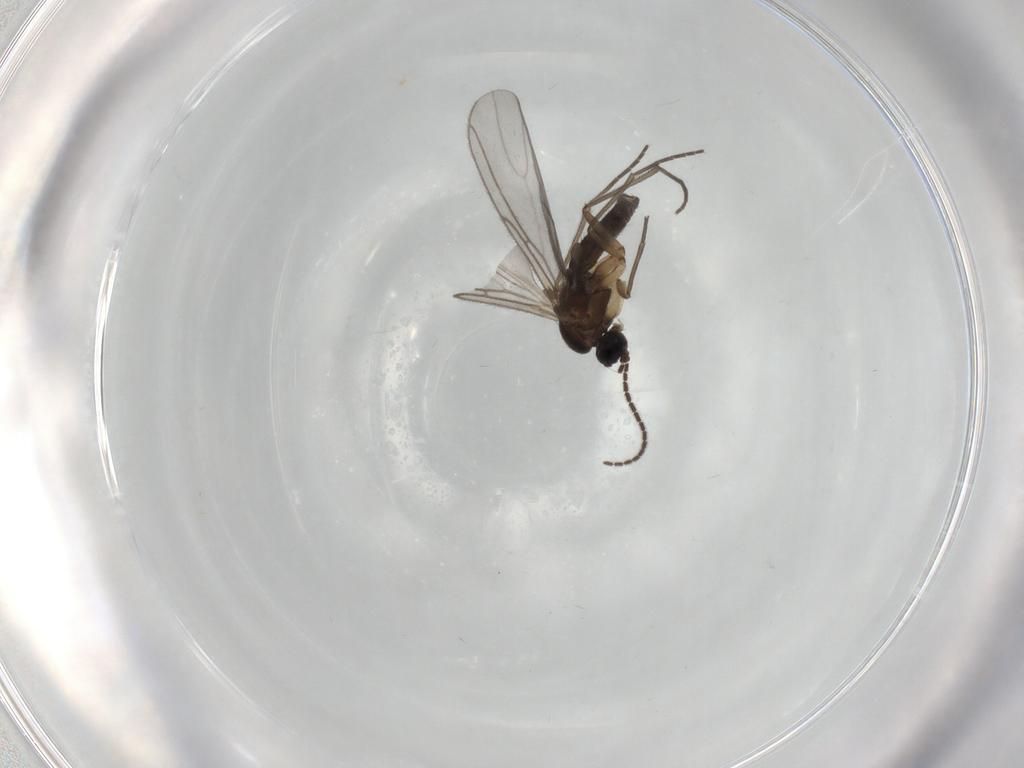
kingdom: Animalia
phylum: Arthropoda
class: Insecta
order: Diptera
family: Sciaridae
